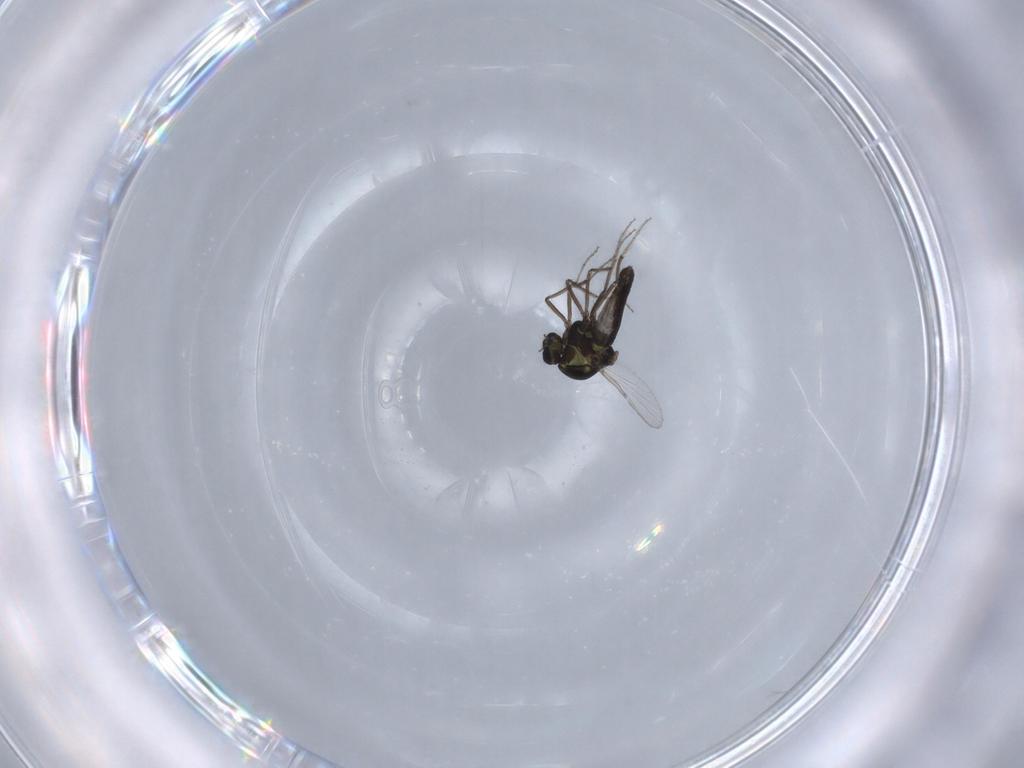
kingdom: Animalia
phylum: Arthropoda
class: Insecta
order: Diptera
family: Ceratopogonidae
